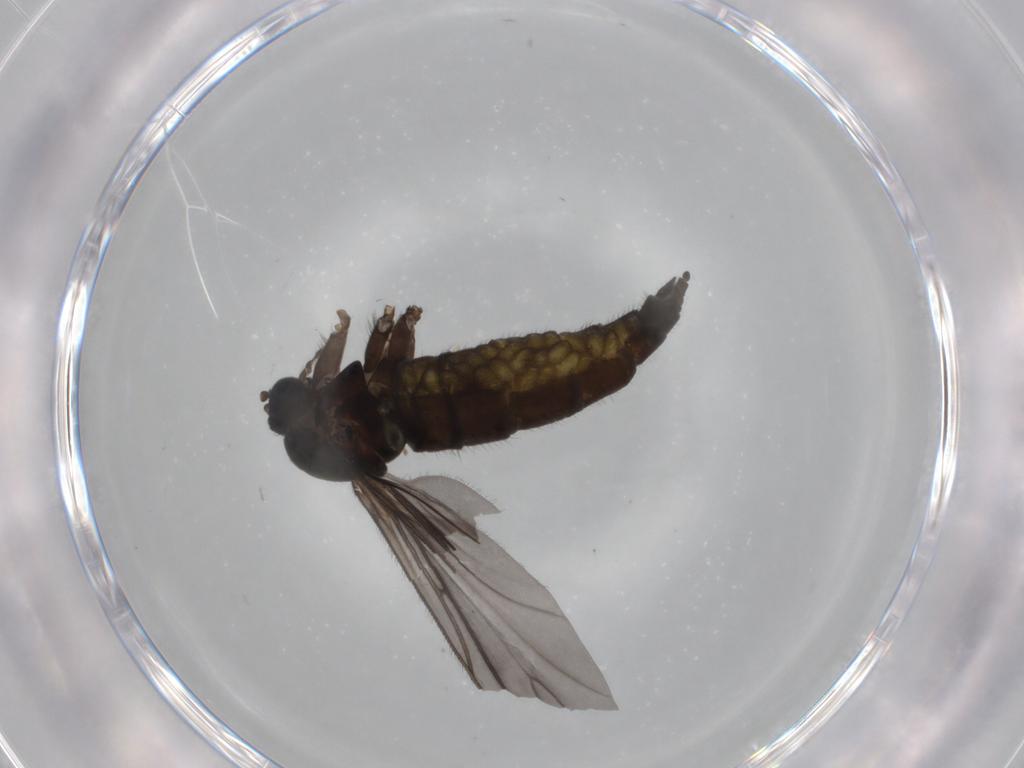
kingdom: Animalia
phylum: Arthropoda
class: Insecta
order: Diptera
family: Sciaridae
